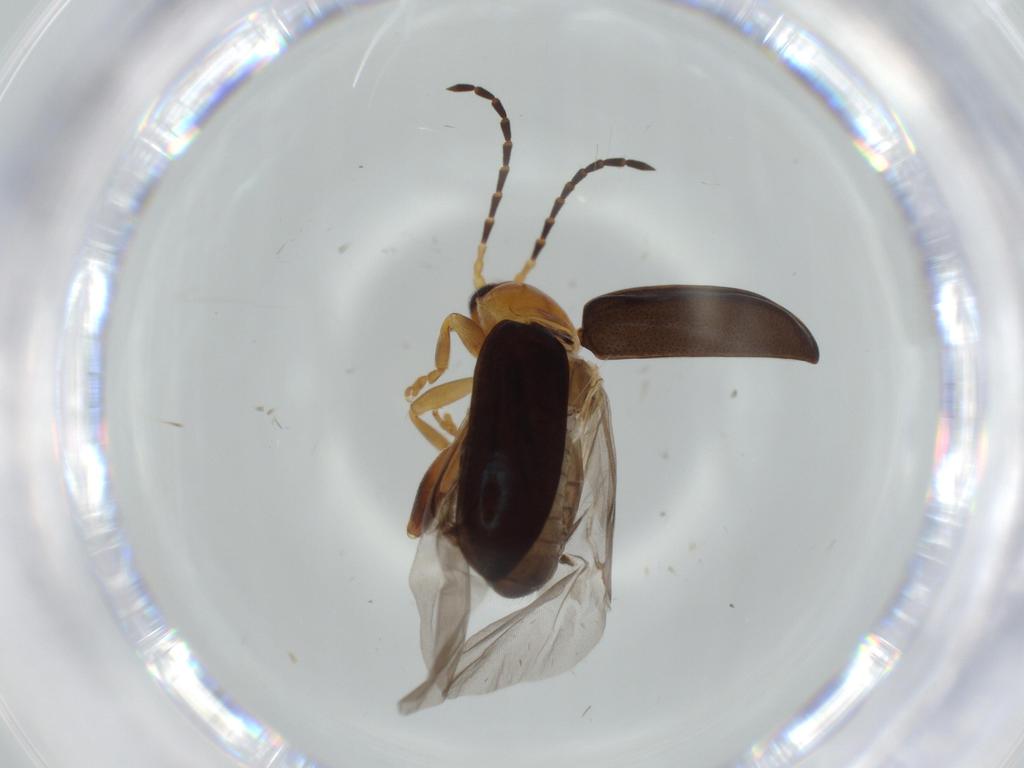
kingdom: Animalia
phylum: Arthropoda
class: Insecta
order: Coleoptera
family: Chrysomelidae
